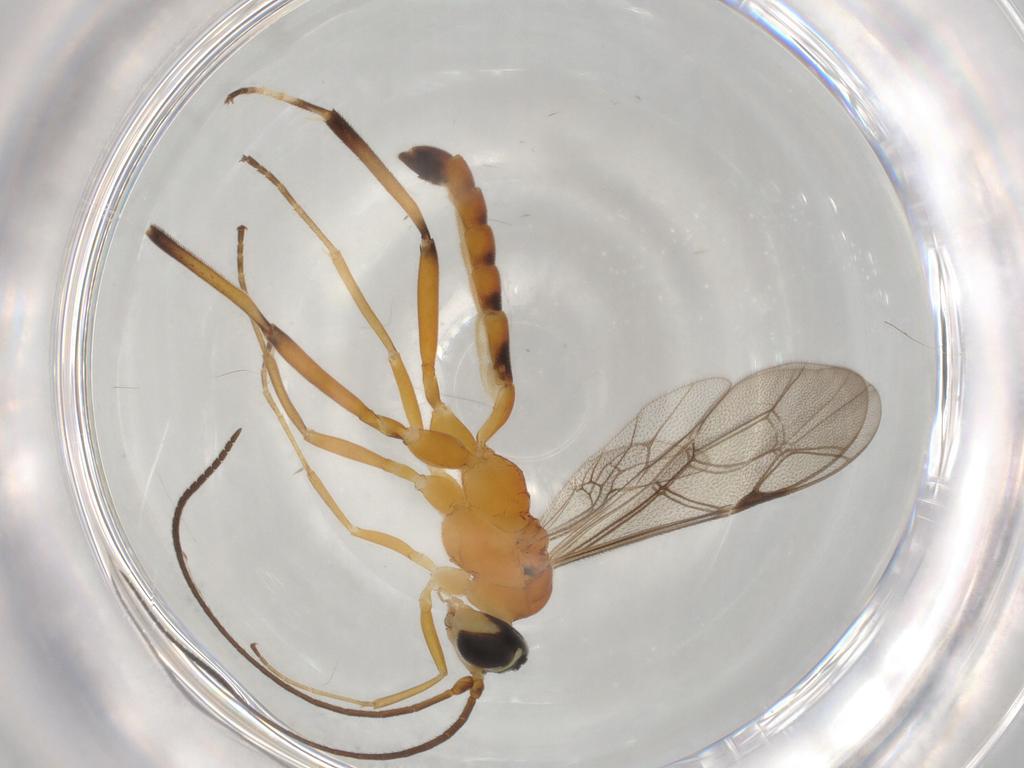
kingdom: Animalia
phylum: Arthropoda
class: Insecta
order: Hymenoptera
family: Ichneumonidae
